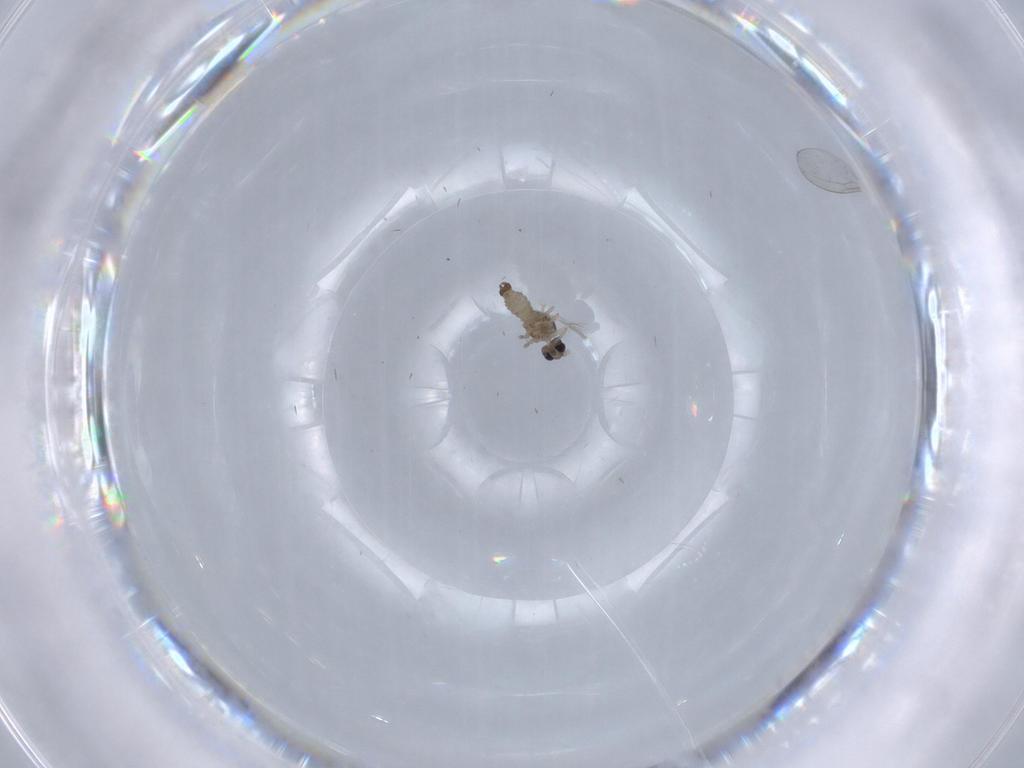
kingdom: Animalia
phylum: Arthropoda
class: Insecta
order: Diptera
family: Cecidomyiidae
